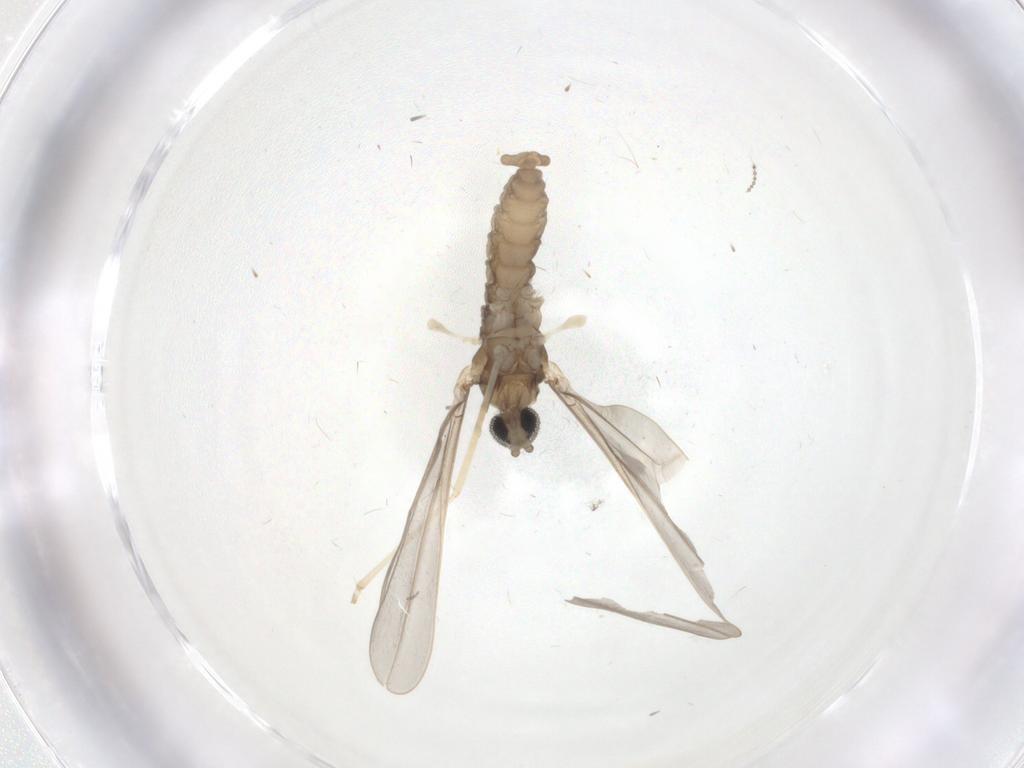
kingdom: Animalia
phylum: Arthropoda
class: Insecta
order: Diptera
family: Cecidomyiidae
